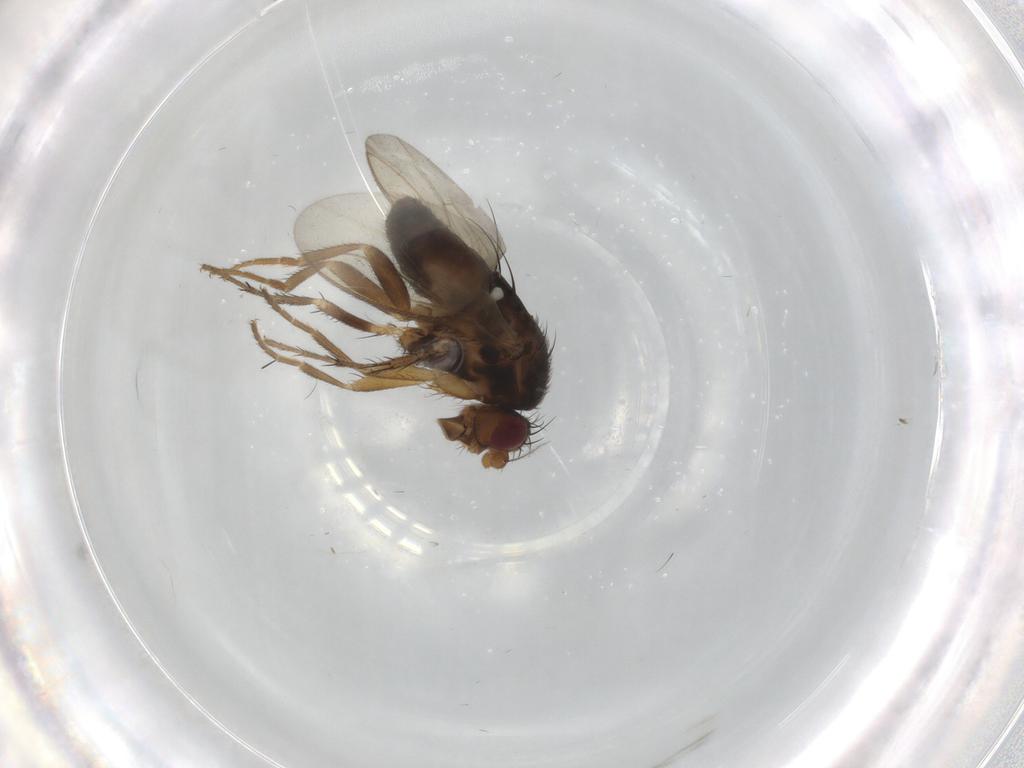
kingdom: Animalia
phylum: Arthropoda
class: Insecta
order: Diptera
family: Sphaeroceridae
